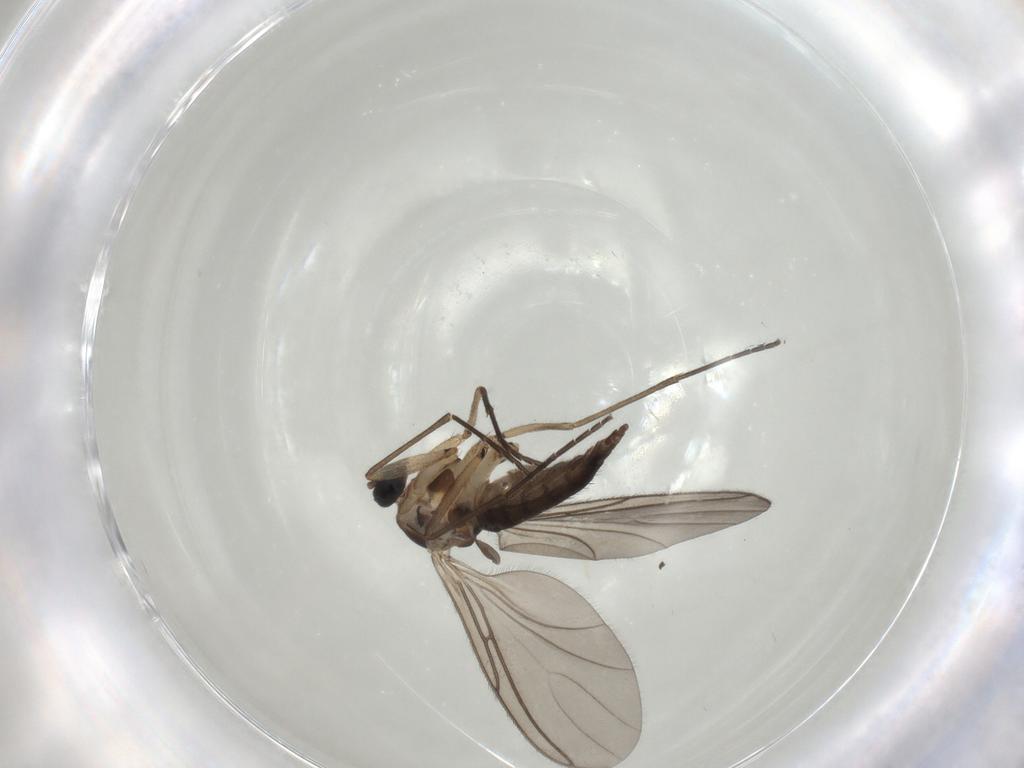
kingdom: Animalia
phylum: Arthropoda
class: Insecta
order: Diptera
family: Sciaridae
